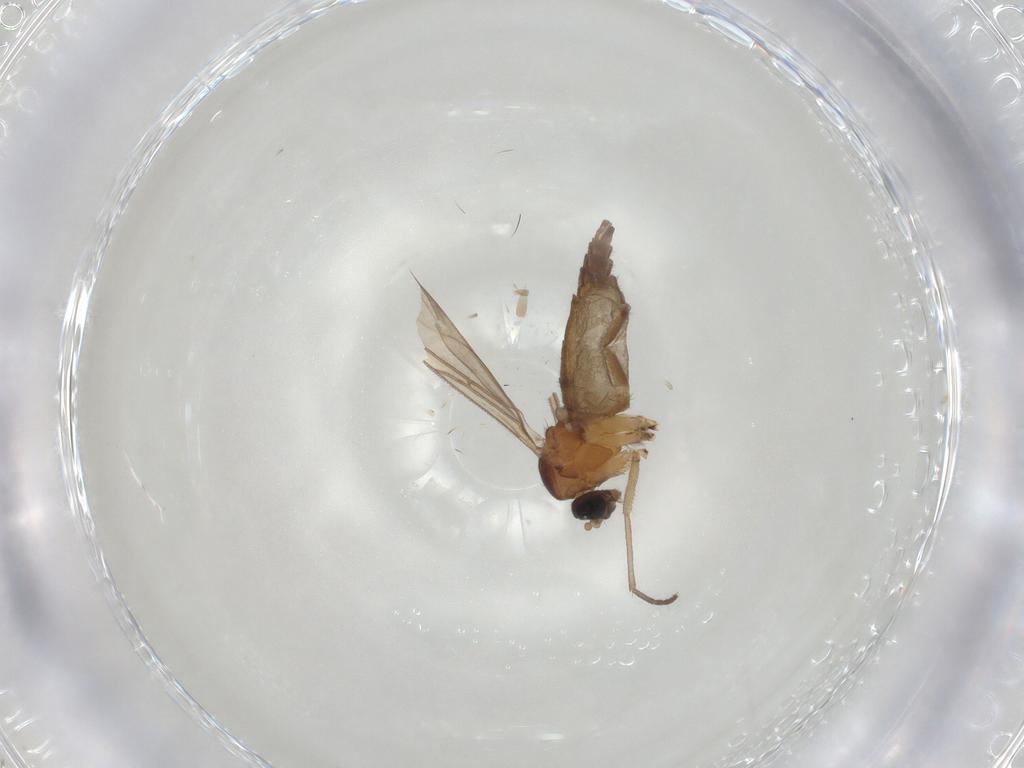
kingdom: Animalia
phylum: Arthropoda
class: Insecta
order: Diptera
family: Sciaridae
